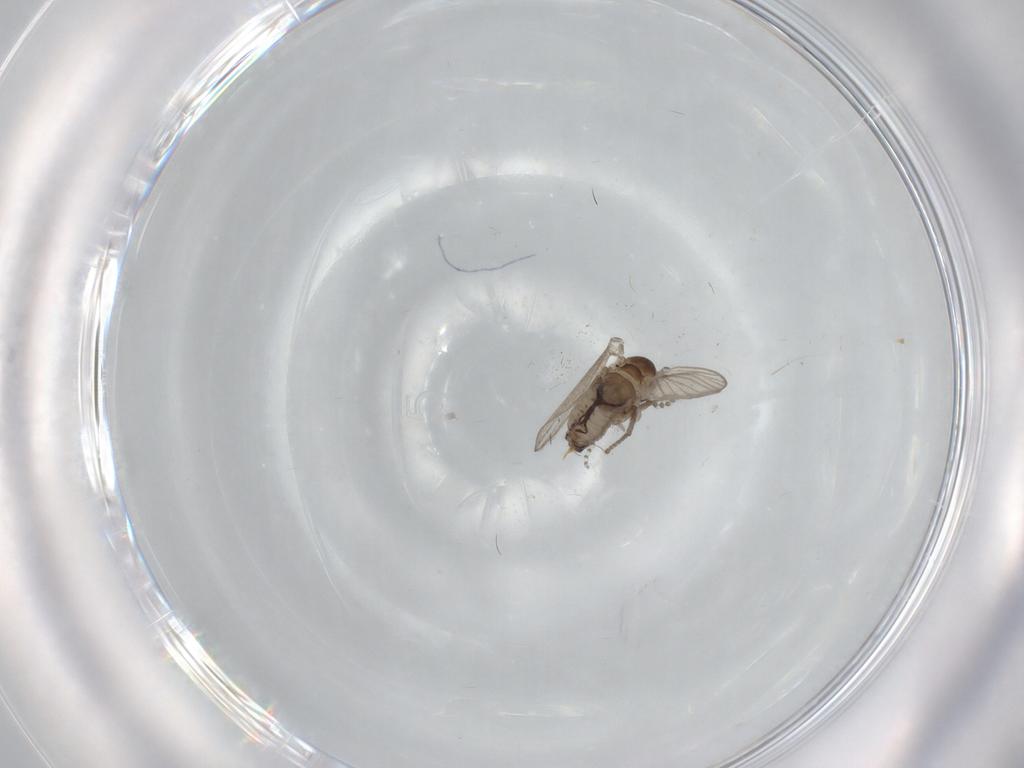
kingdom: Animalia
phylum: Arthropoda
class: Insecta
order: Diptera
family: Psychodidae
